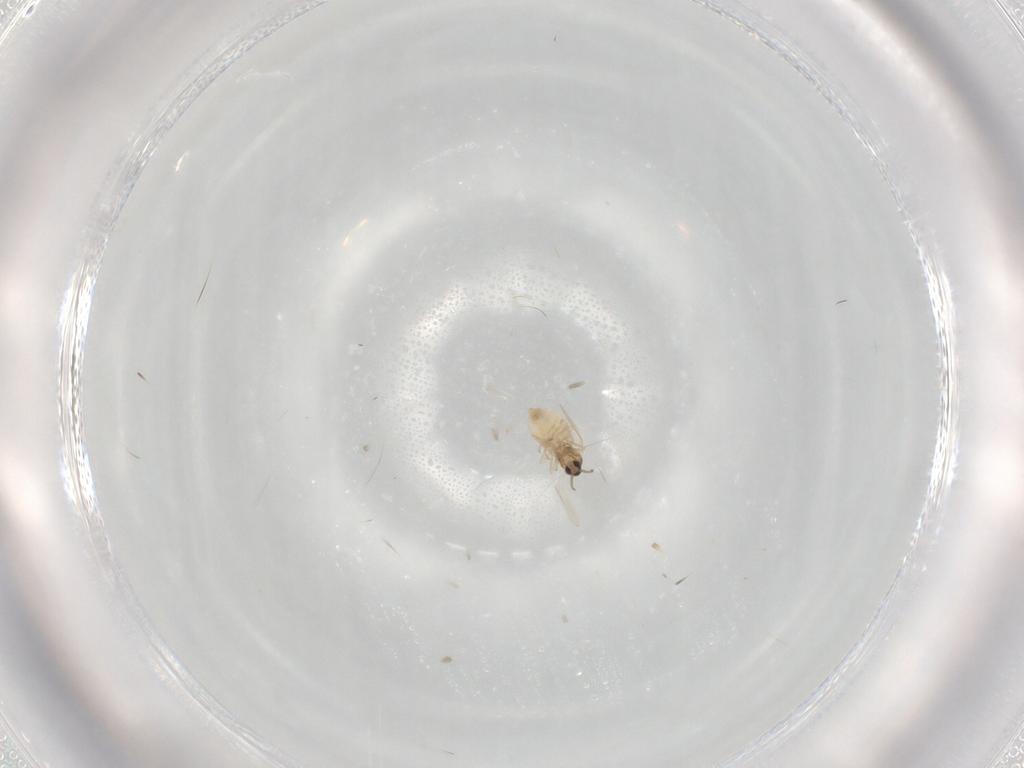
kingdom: Animalia
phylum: Arthropoda
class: Insecta
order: Diptera
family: Cecidomyiidae
